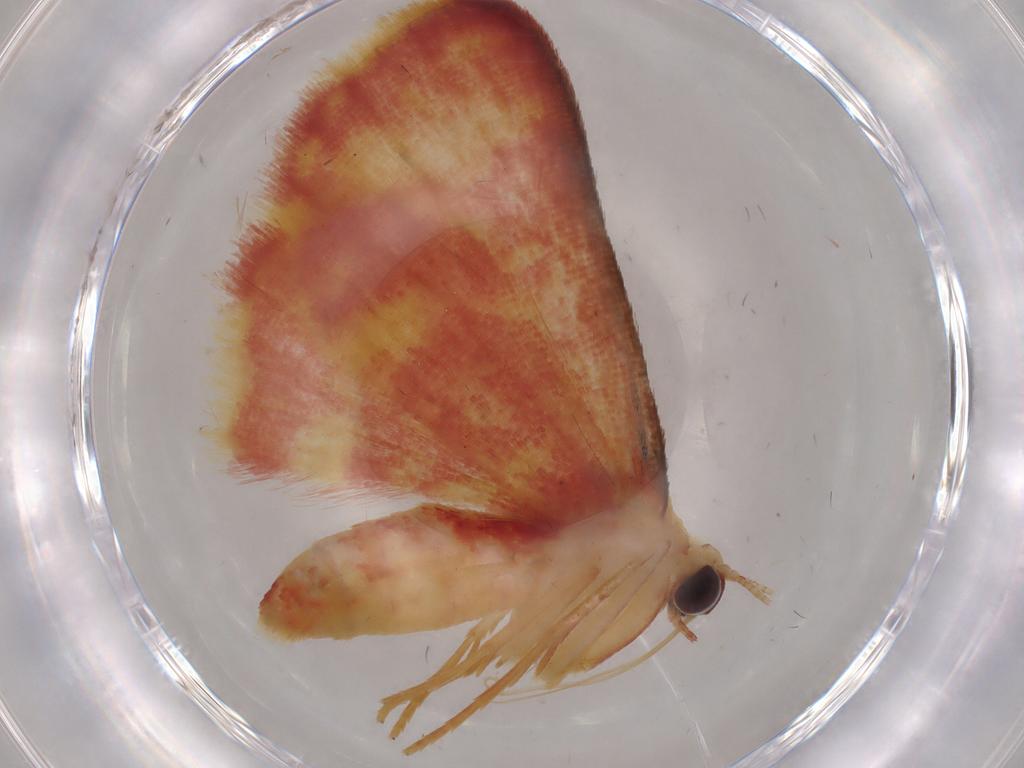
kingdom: Animalia
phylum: Arthropoda
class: Insecta
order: Lepidoptera
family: Geometridae
